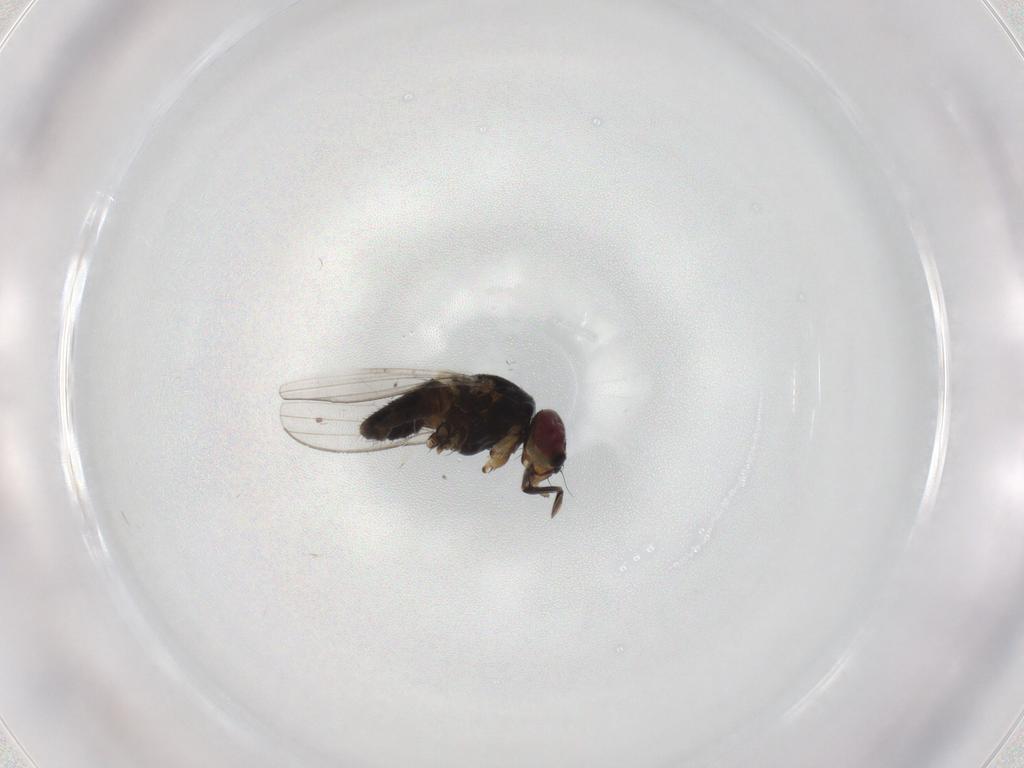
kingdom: Animalia
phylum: Arthropoda
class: Insecta
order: Diptera
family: Milichiidae
